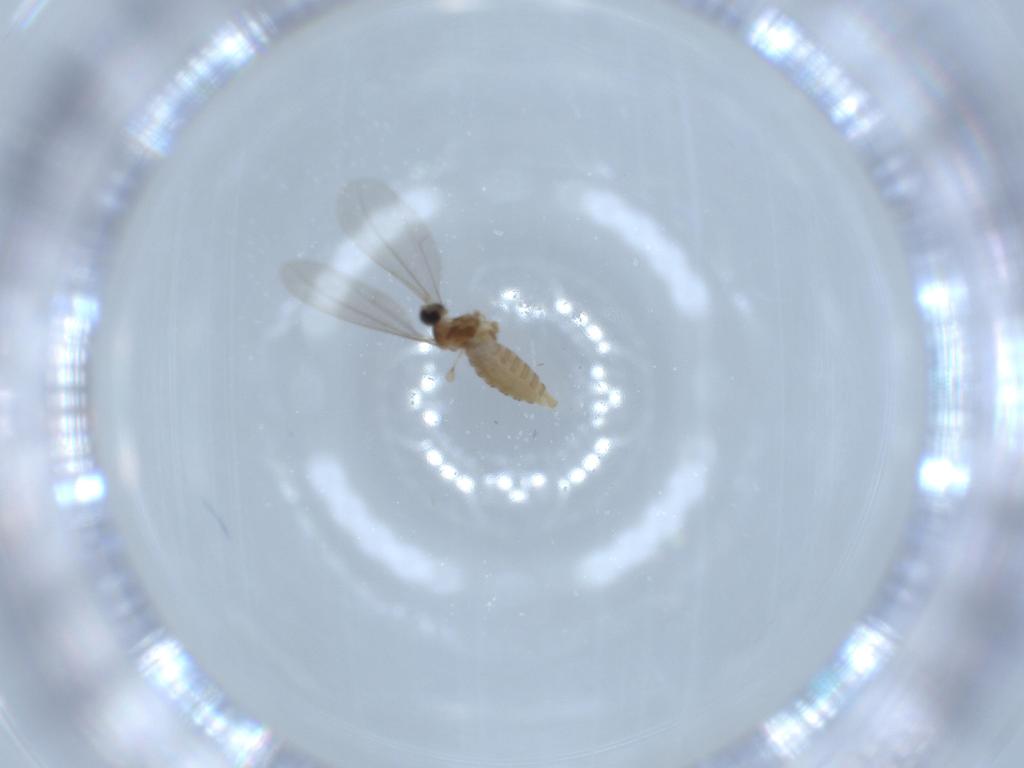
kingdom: Animalia
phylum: Arthropoda
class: Insecta
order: Diptera
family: Cecidomyiidae
